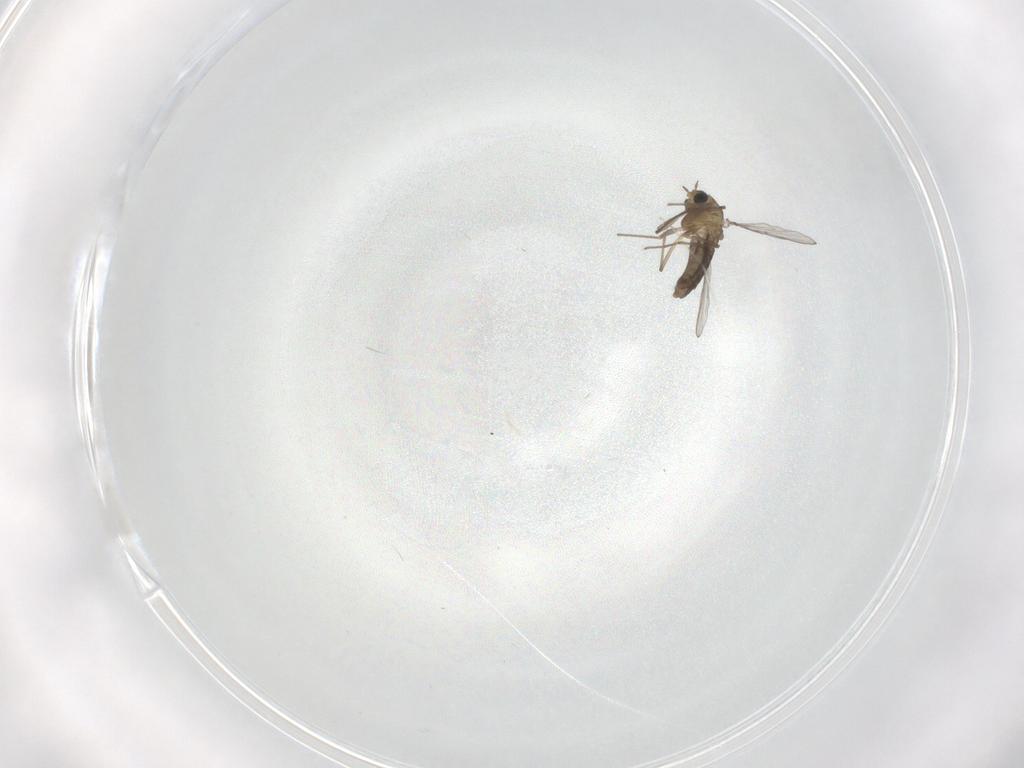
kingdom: Animalia
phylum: Arthropoda
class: Insecta
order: Diptera
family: Chironomidae
